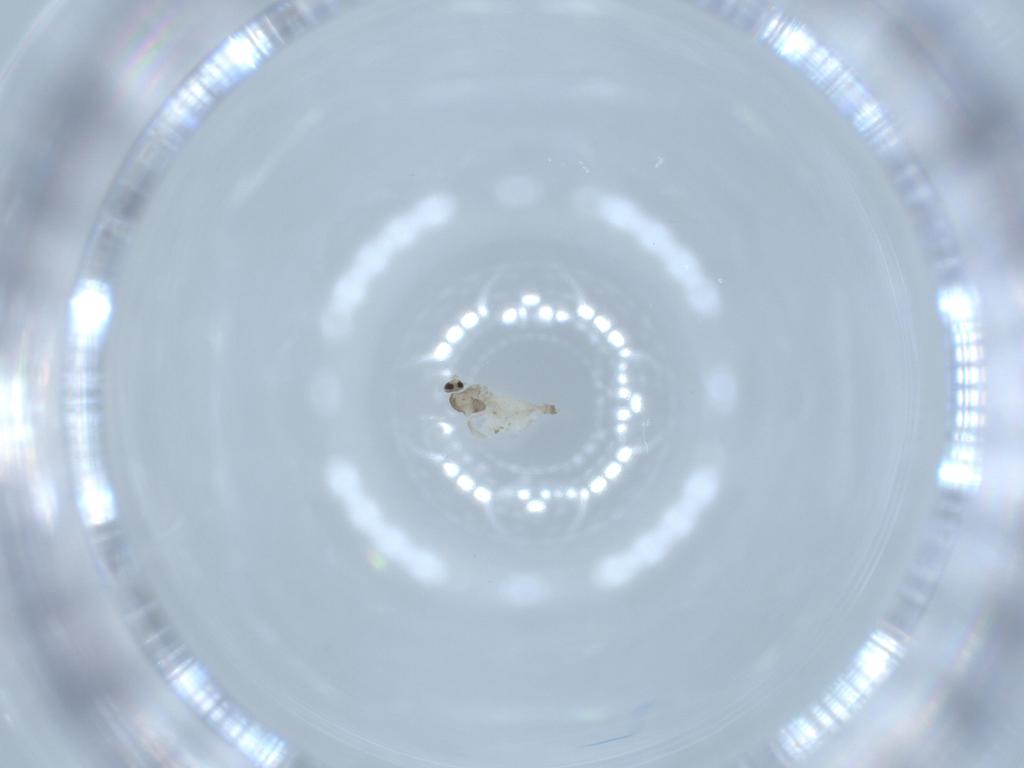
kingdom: Animalia
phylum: Arthropoda
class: Insecta
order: Diptera
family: Cecidomyiidae
